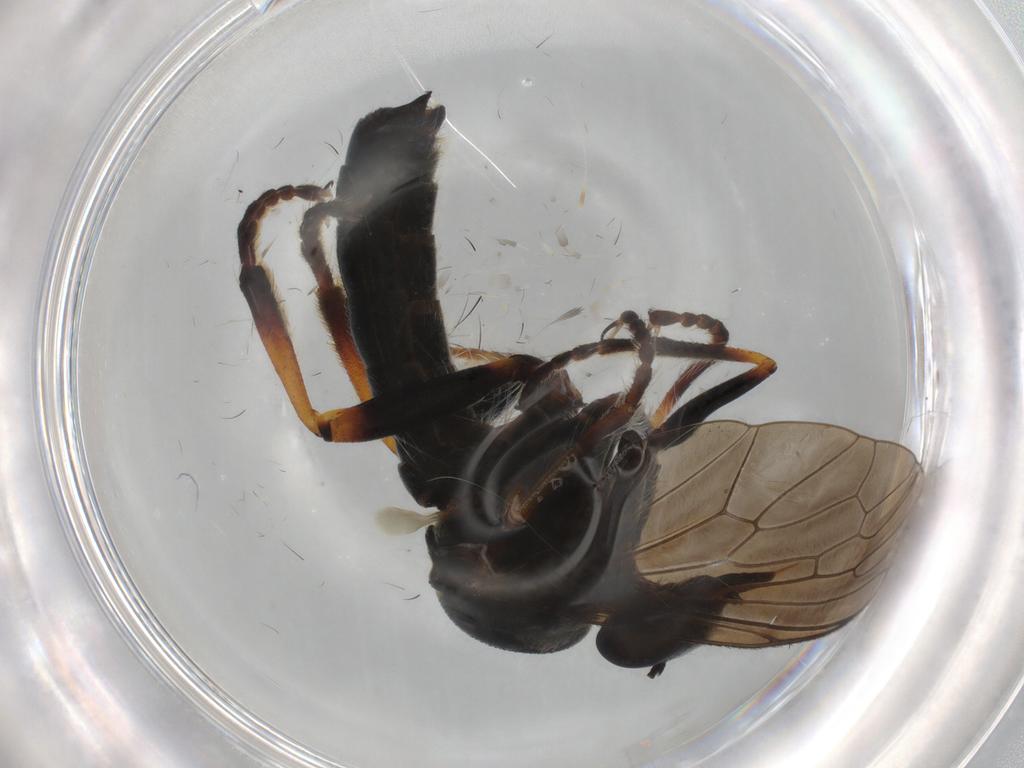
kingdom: Animalia
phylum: Arthropoda
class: Insecta
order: Diptera
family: Asilidae
